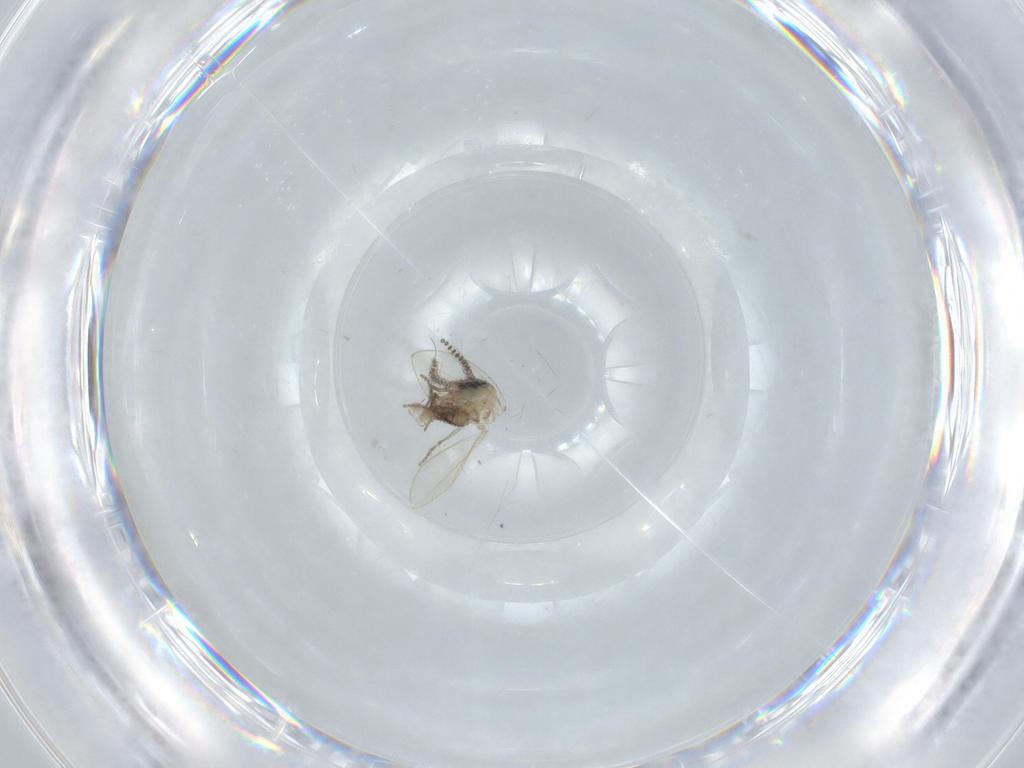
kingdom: Animalia
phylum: Arthropoda
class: Insecta
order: Diptera
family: Psychodidae
